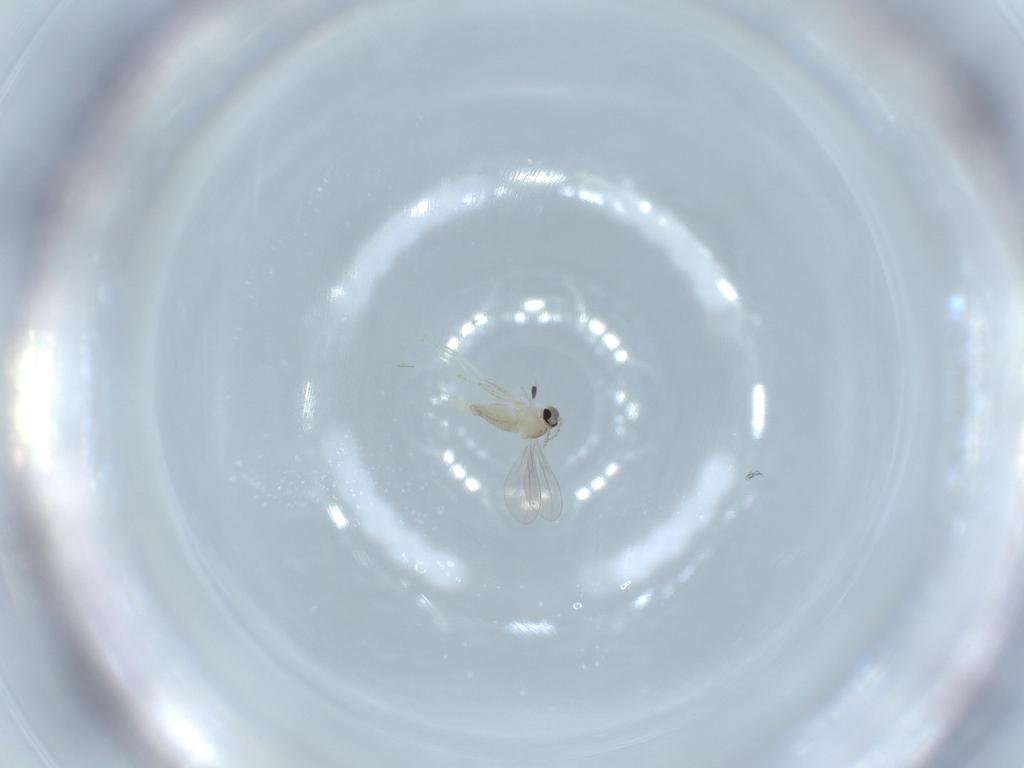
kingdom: Animalia
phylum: Arthropoda
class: Insecta
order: Diptera
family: Cecidomyiidae
